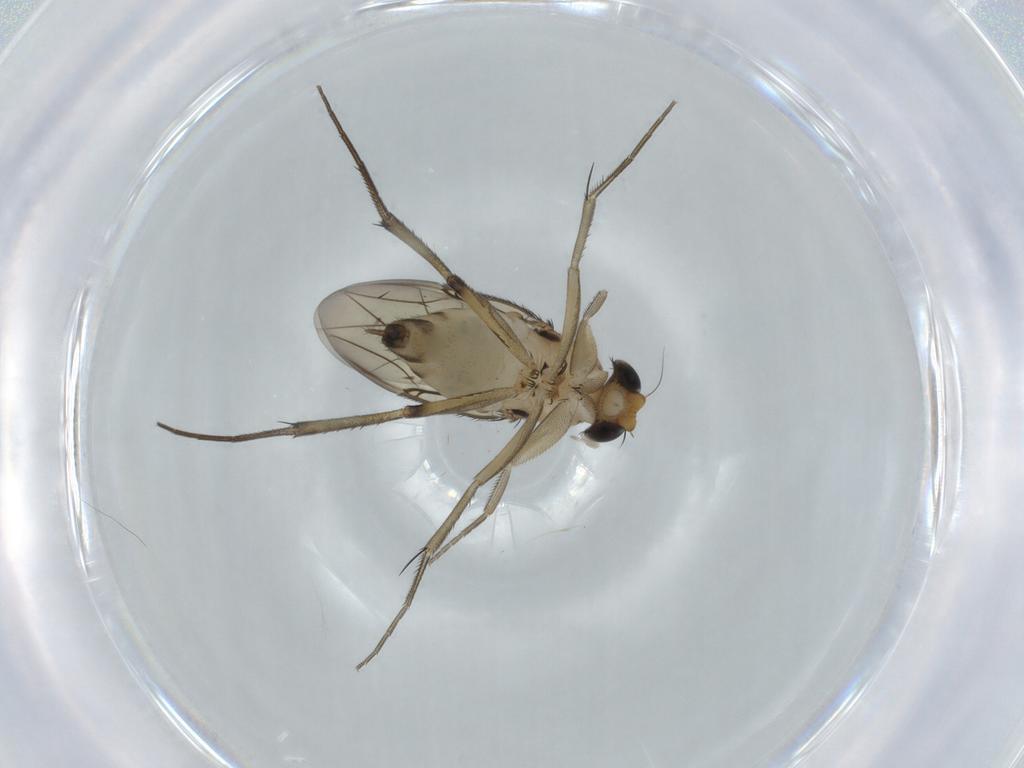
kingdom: Animalia
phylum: Arthropoda
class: Insecta
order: Diptera
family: Phoridae
